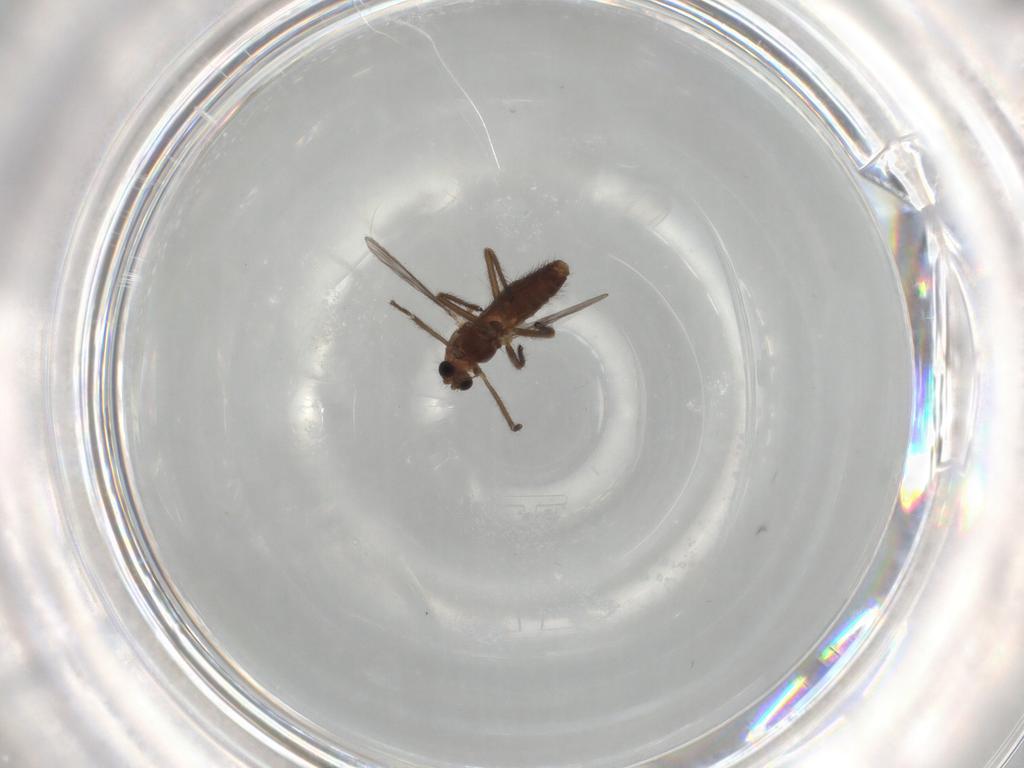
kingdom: Animalia
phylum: Arthropoda
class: Insecta
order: Diptera
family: Chironomidae
